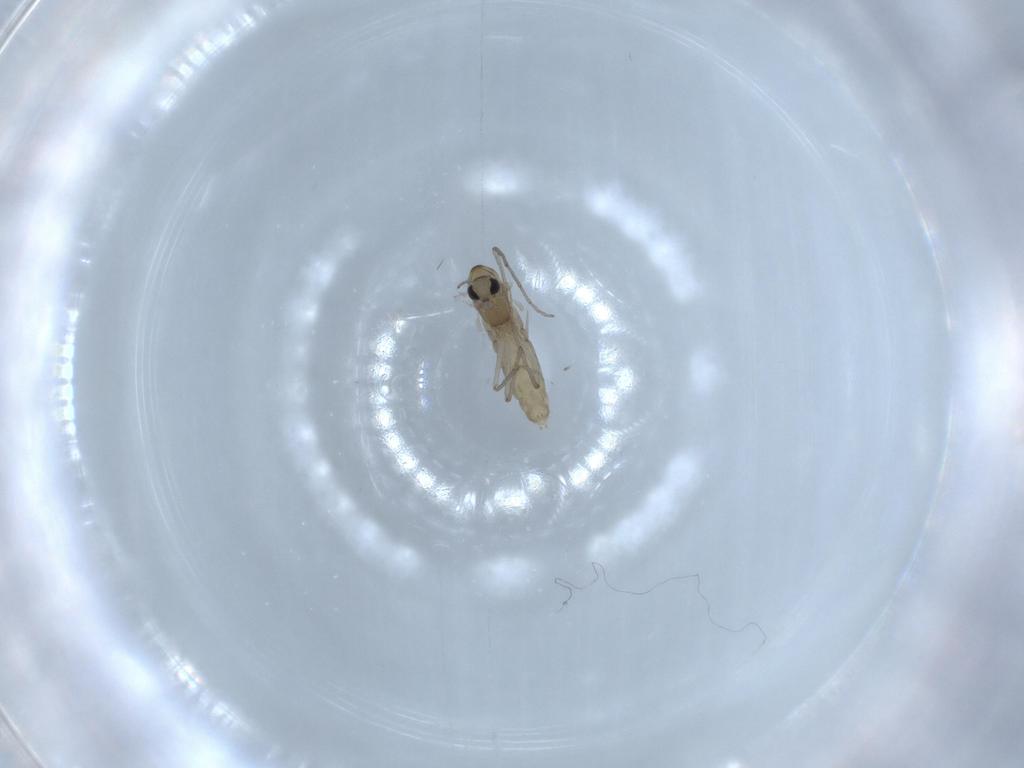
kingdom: Animalia
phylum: Arthropoda
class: Insecta
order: Diptera
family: Chironomidae
